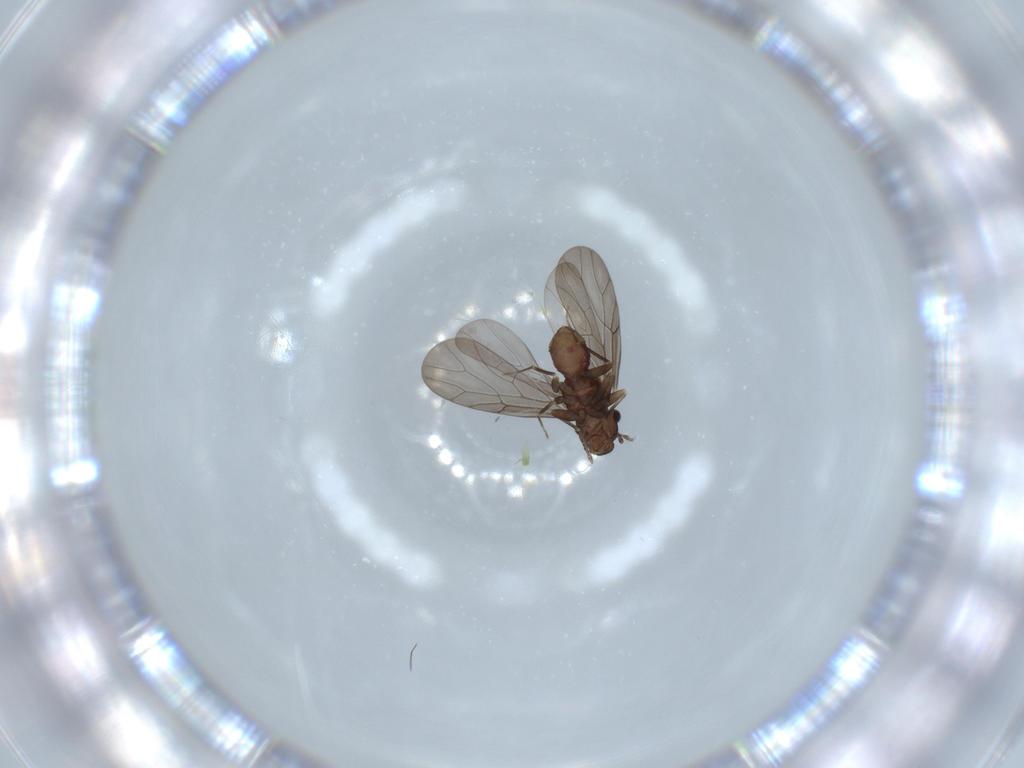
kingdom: Animalia
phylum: Arthropoda
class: Insecta
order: Psocodea
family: Lepidopsocidae
